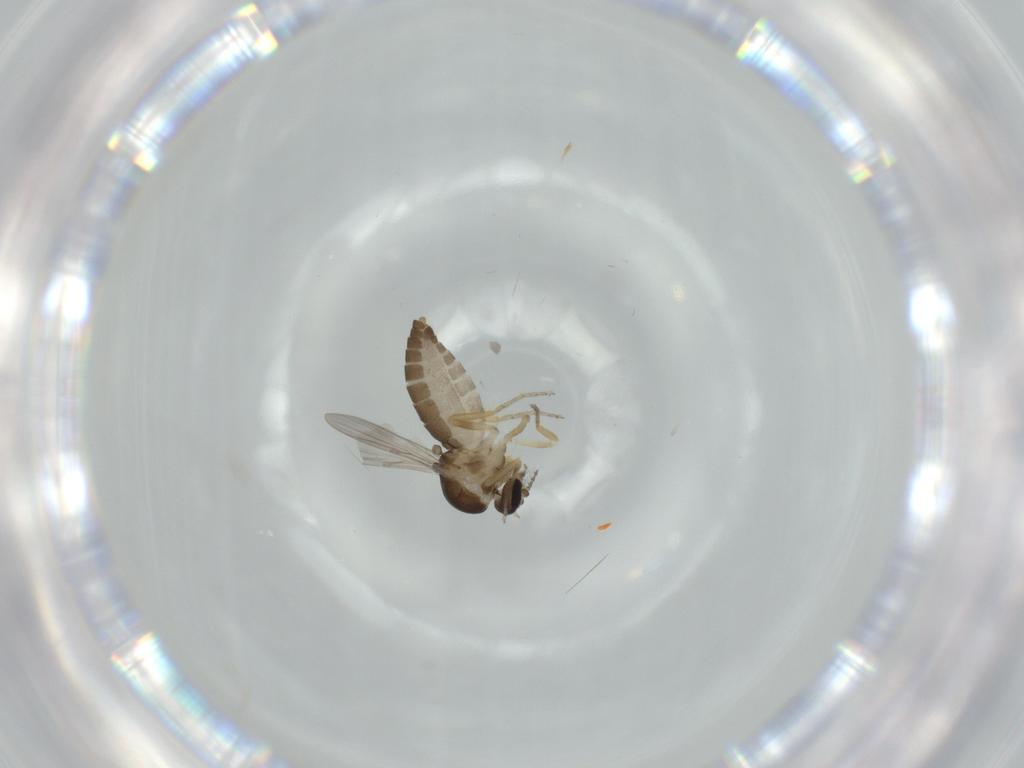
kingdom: Animalia
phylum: Arthropoda
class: Insecta
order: Diptera
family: Ceratopogonidae
